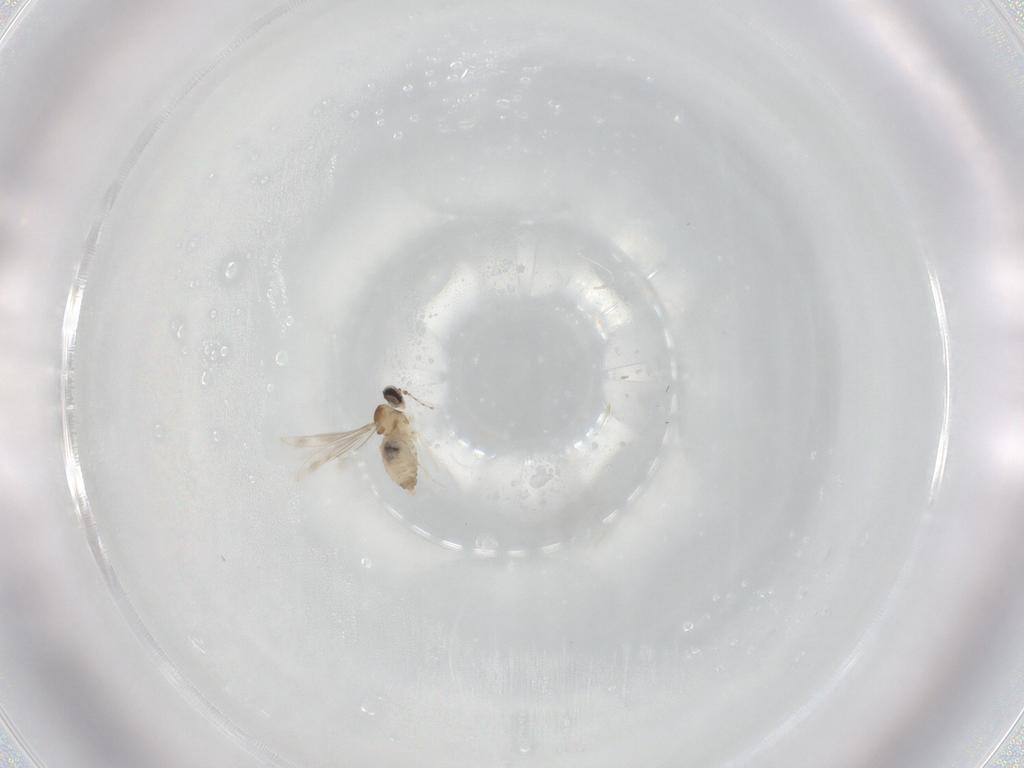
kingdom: Animalia
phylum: Arthropoda
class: Insecta
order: Diptera
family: Cecidomyiidae
